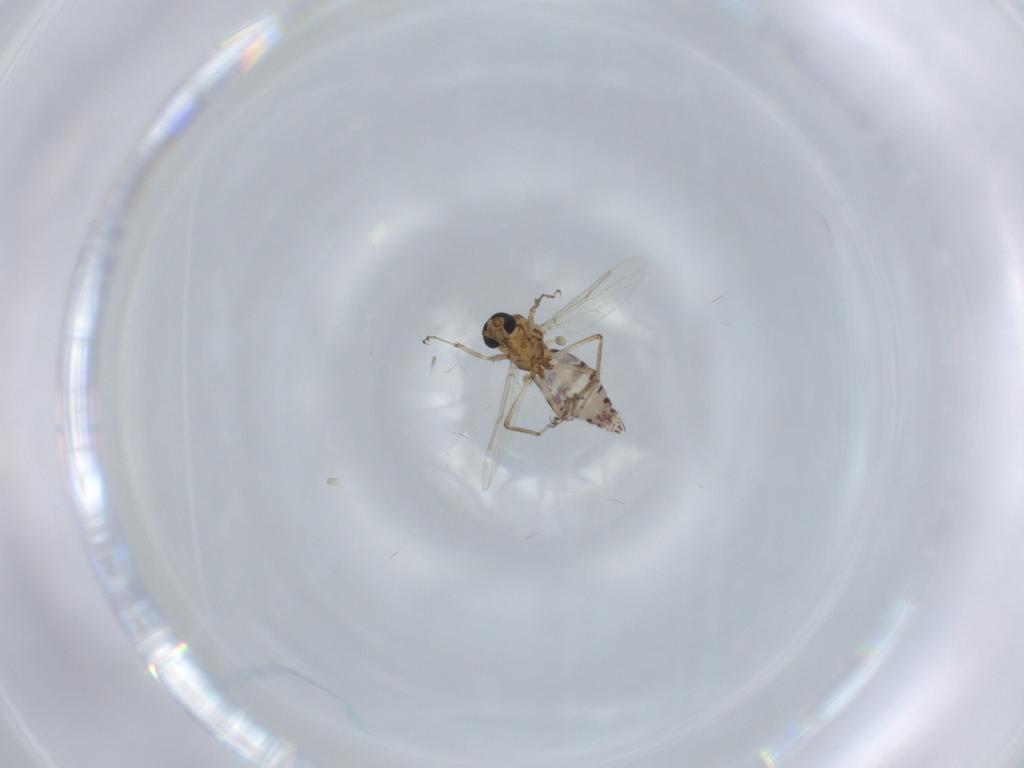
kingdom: Animalia
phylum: Arthropoda
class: Insecta
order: Diptera
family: Ceratopogonidae
